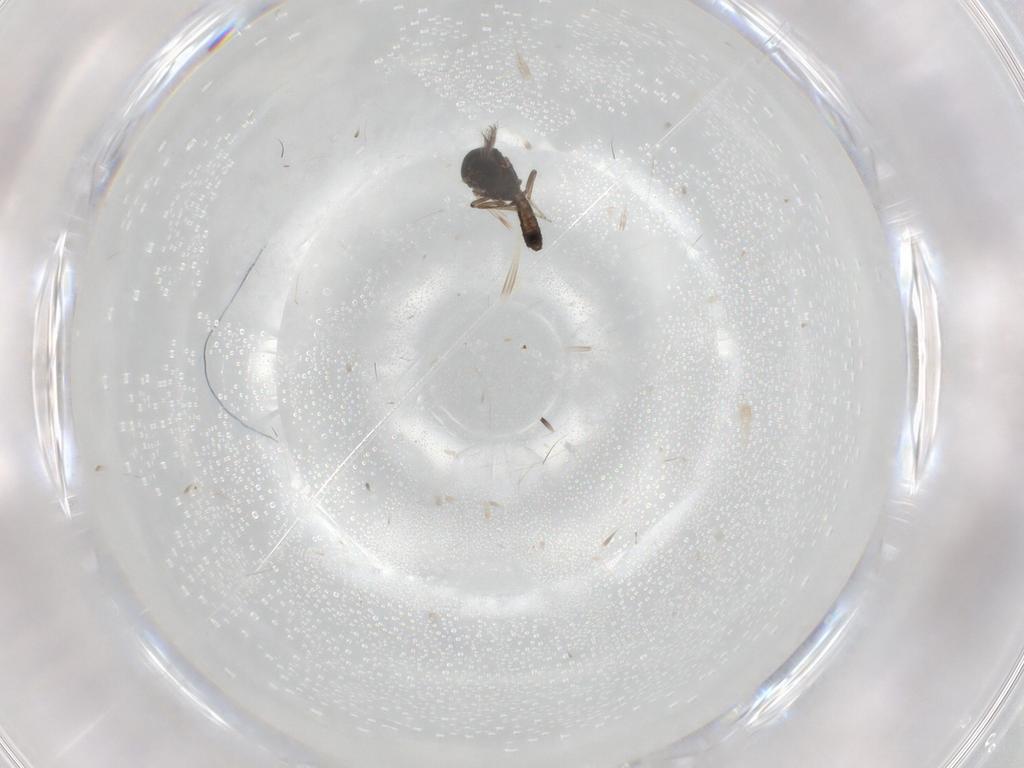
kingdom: Animalia
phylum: Arthropoda
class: Insecta
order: Diptera
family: Ceratopogonidae
